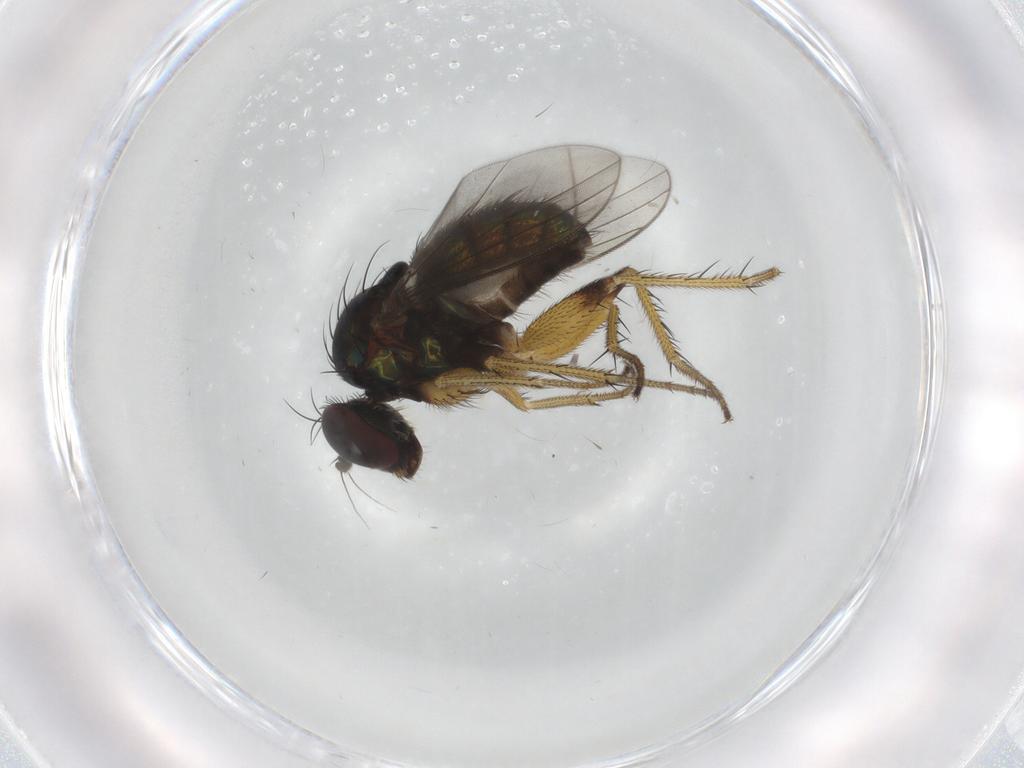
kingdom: Animalia
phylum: Arthropoda
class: Insecta
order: Diptera
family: Dolichopodidae
